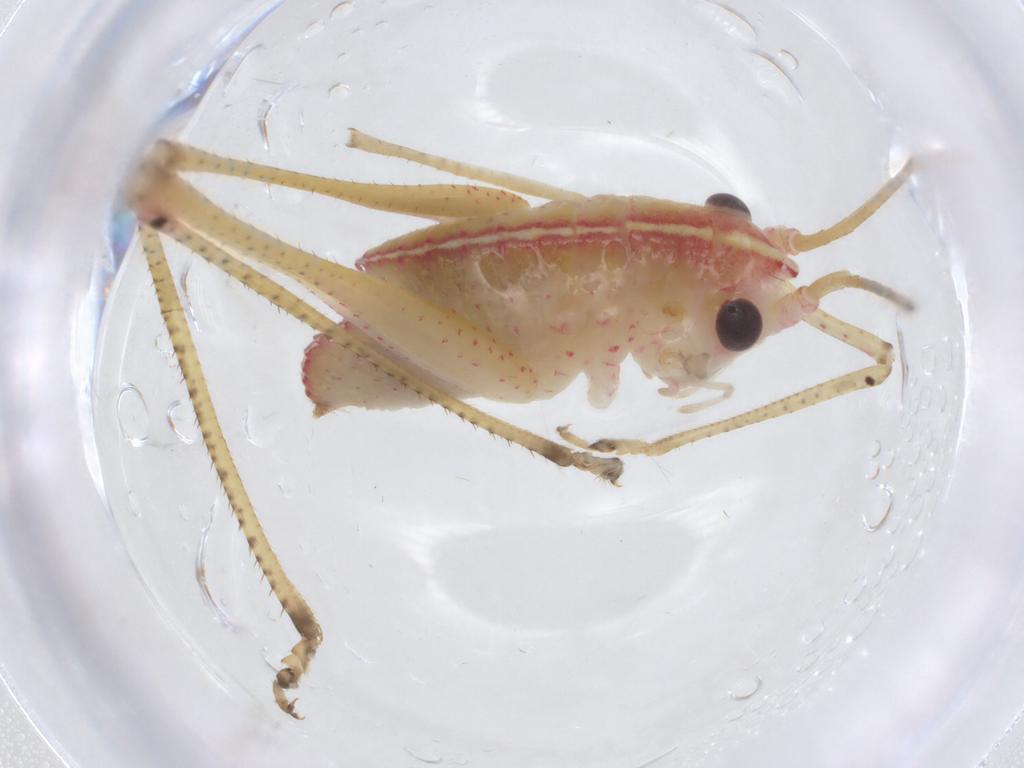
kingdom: Animalia
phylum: Arthropoda
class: Insecta
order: Orthoptera
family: Tettigoniidae
